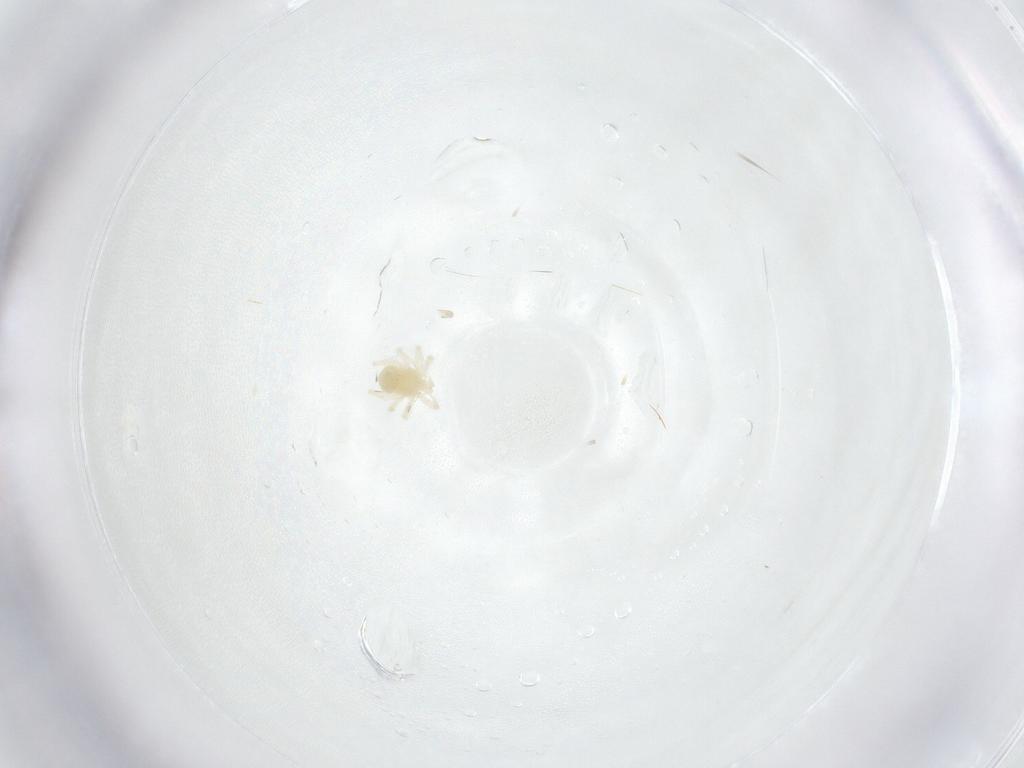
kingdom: Animalia
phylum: Arthropoda
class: Arachnida
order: Trombidiformes
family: Anystidae
